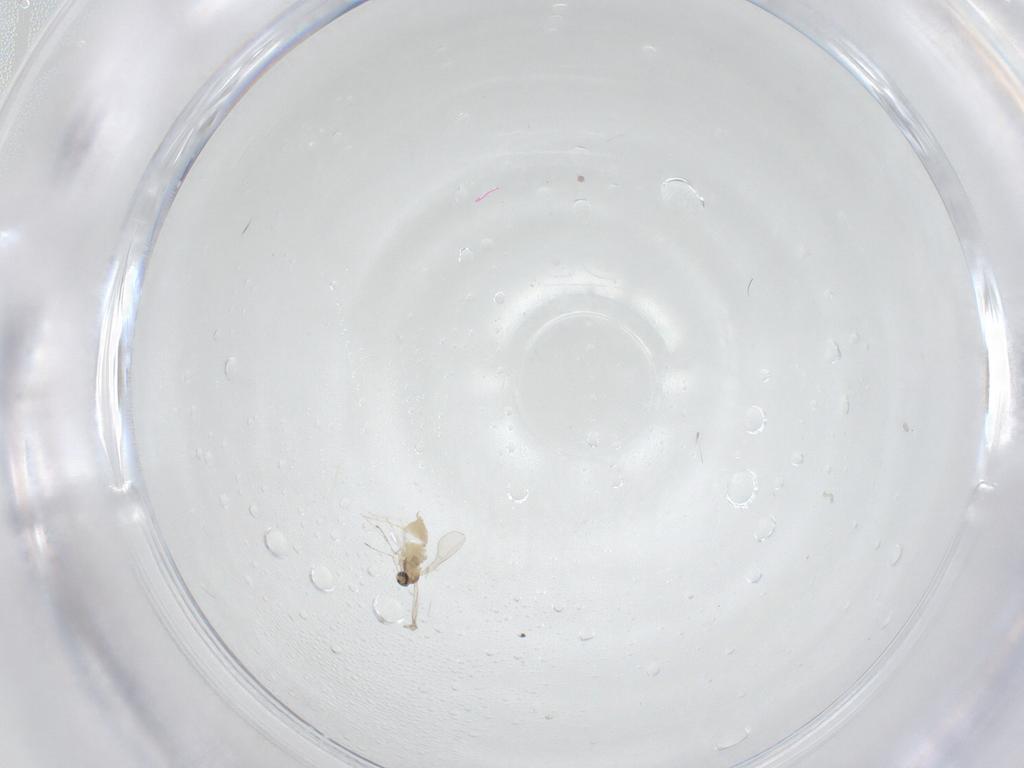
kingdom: Animalia
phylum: Arthropoda
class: Insecta
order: Diptera
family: Cecidomyiidae
